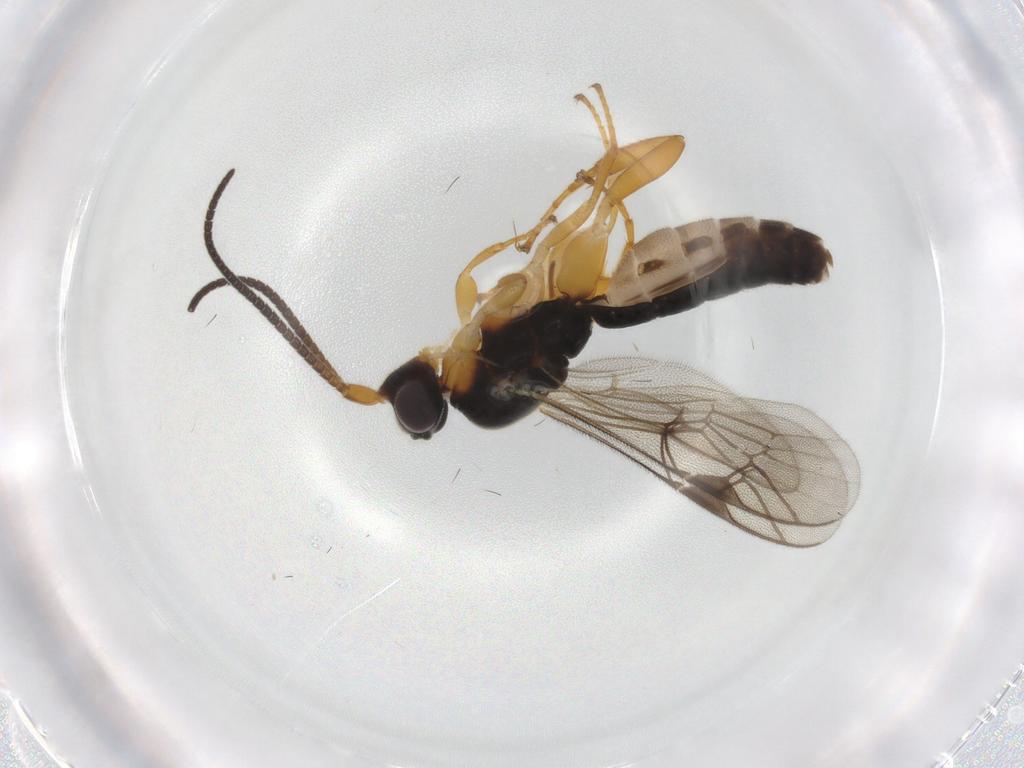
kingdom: Animalia
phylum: Arthropoda
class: Insecta
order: Hymenoptera
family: Ichneumonidae
